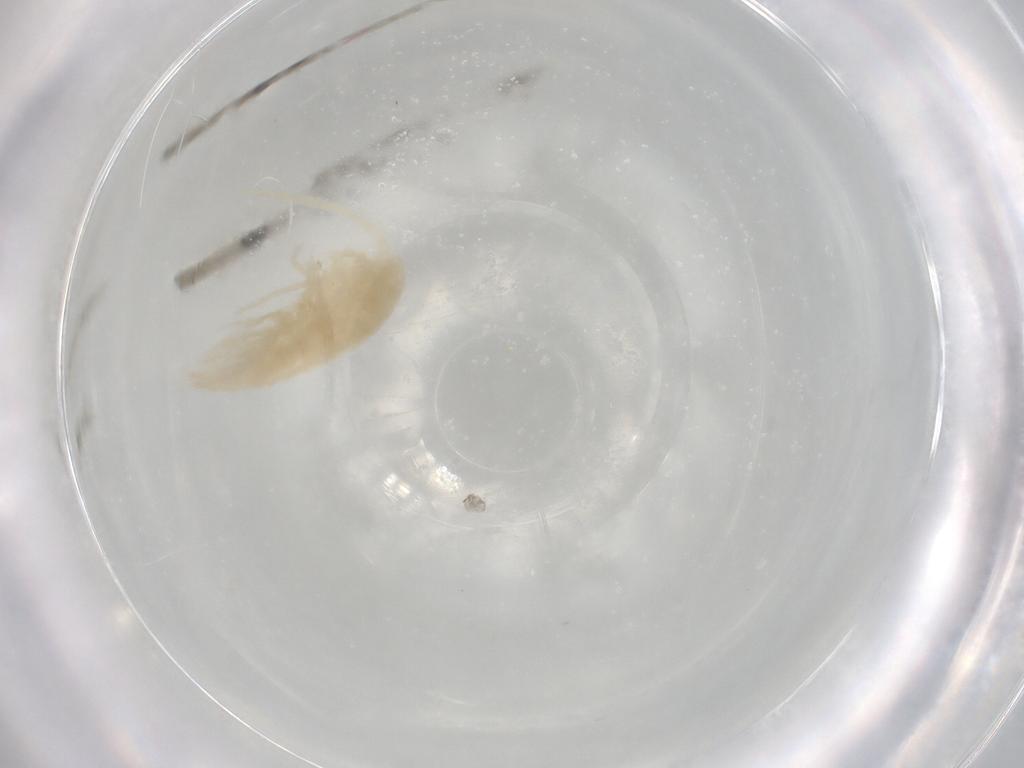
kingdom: Animalia
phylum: Arthropoda
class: Copepoda
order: Calanoida
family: Diaptomidae
